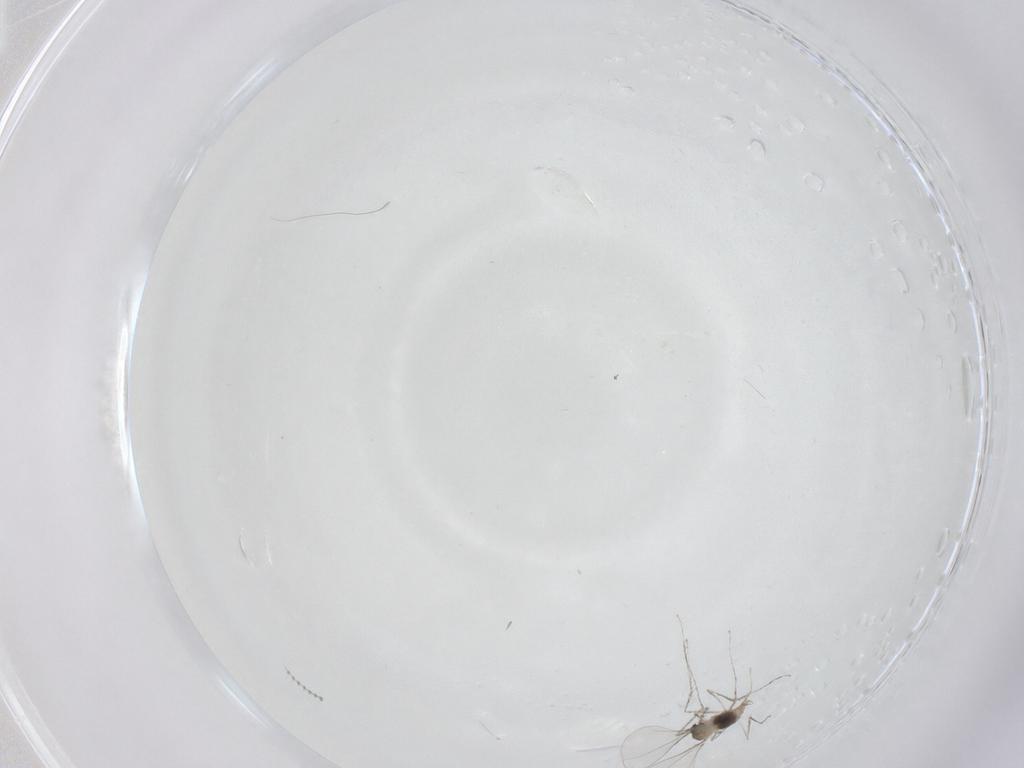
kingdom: Animalia
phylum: Arthropoda
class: Insecta
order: Diptera
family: Cecidomyiidae
